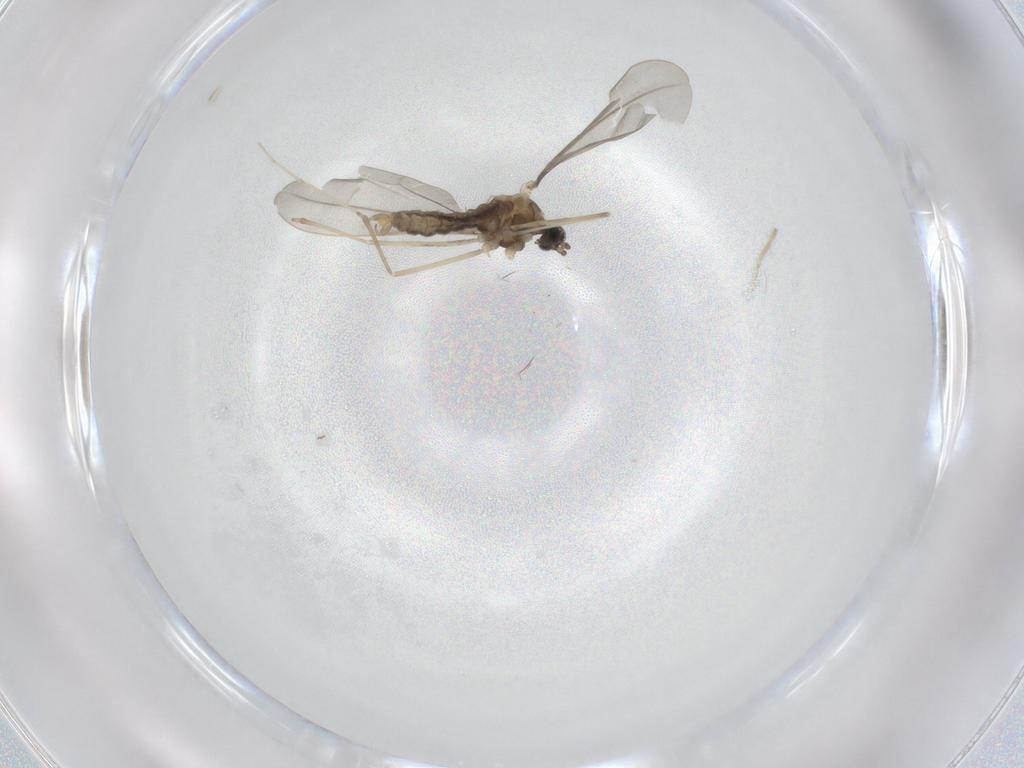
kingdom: Animalia
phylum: Arthropoda
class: Insecta
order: Diptera
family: Cecidomyiidae
